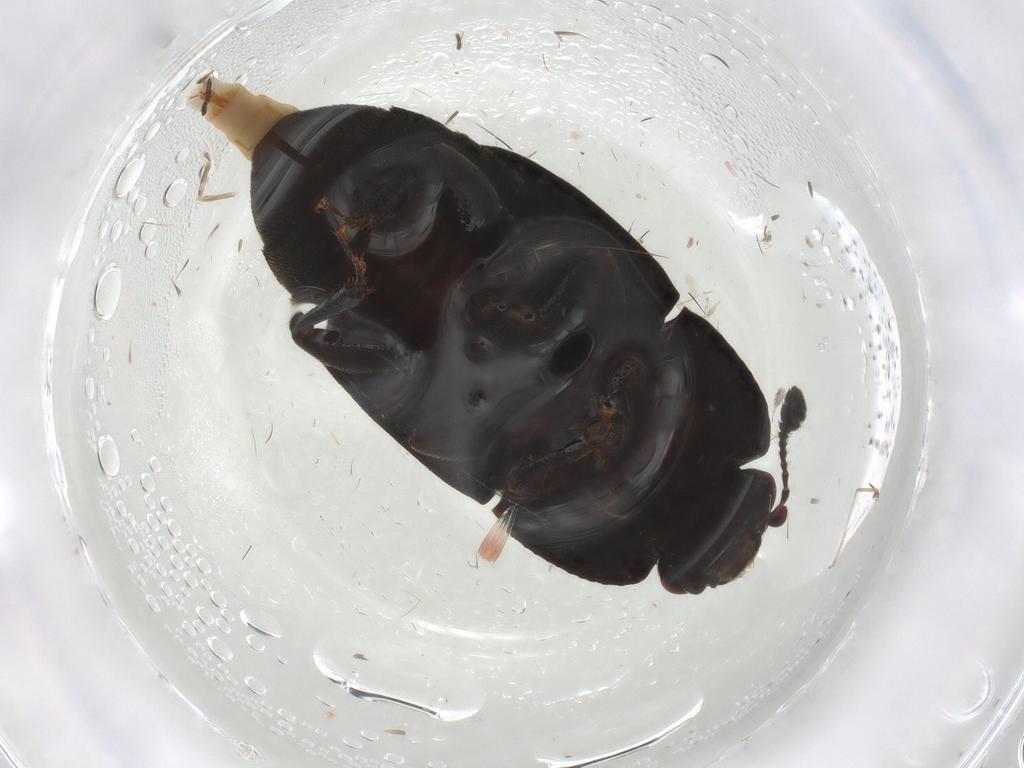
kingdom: Animalia
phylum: Arthropoda
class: Insecta
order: Coleoptera
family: Nitidulidae
